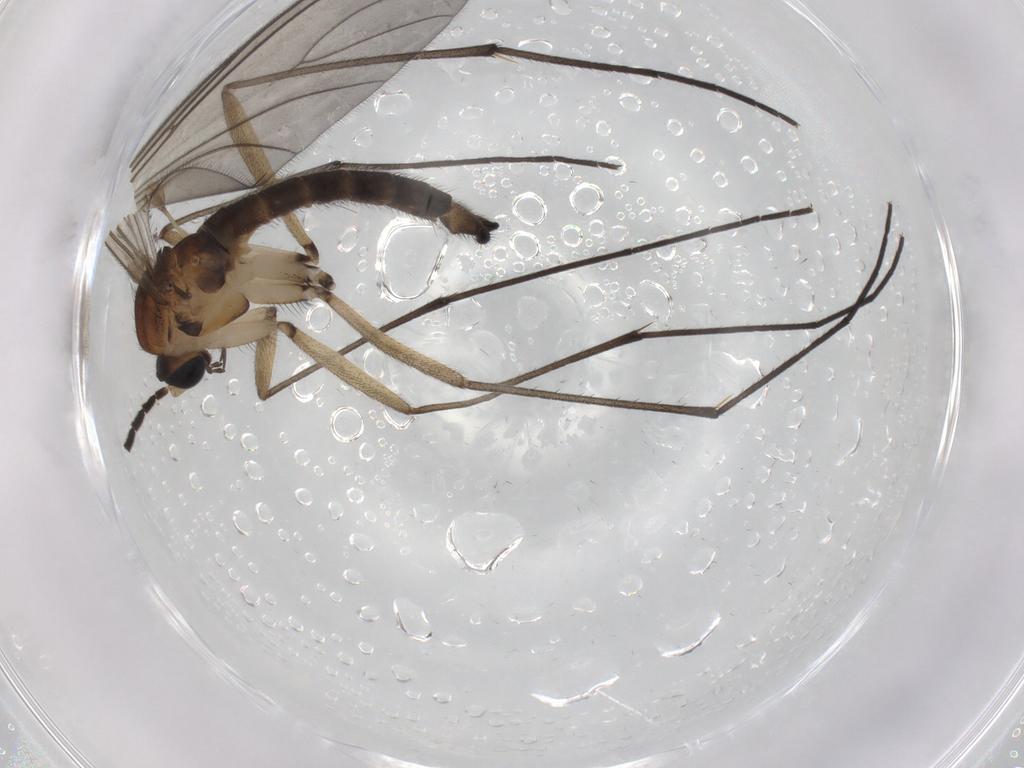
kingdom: Animalia
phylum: Arthropoda
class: Insecta
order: Diptera
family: Sciaridae
